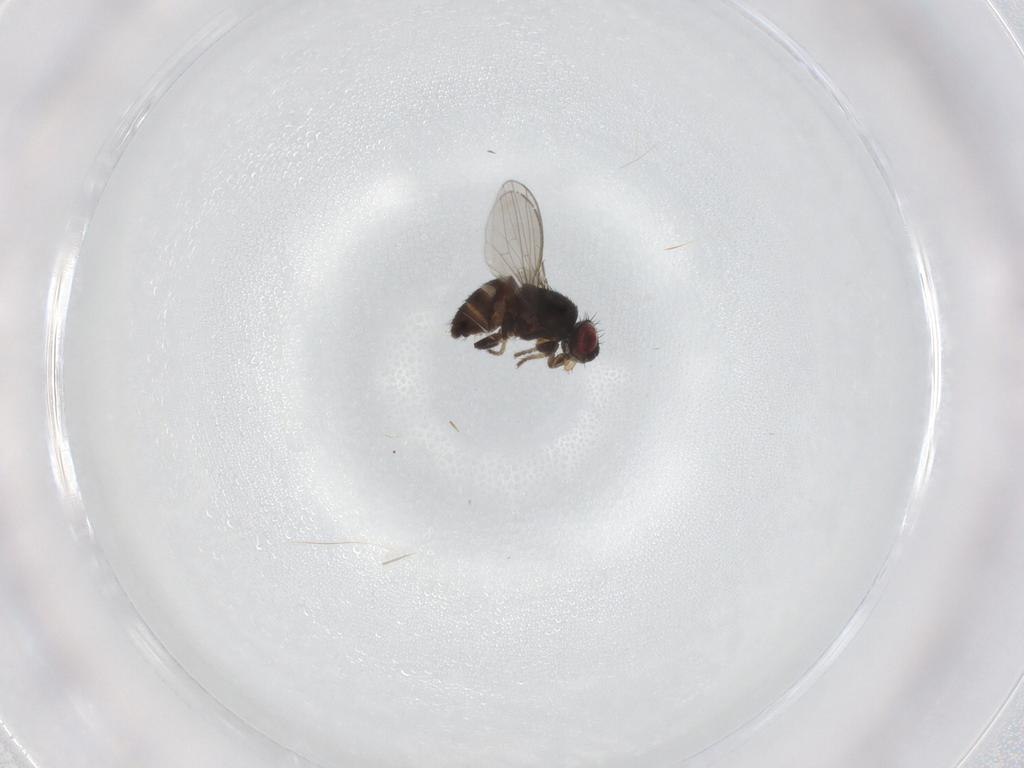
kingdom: Animalia
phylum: Arthropoda
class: Insecta
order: Diptera
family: Milichiidae
